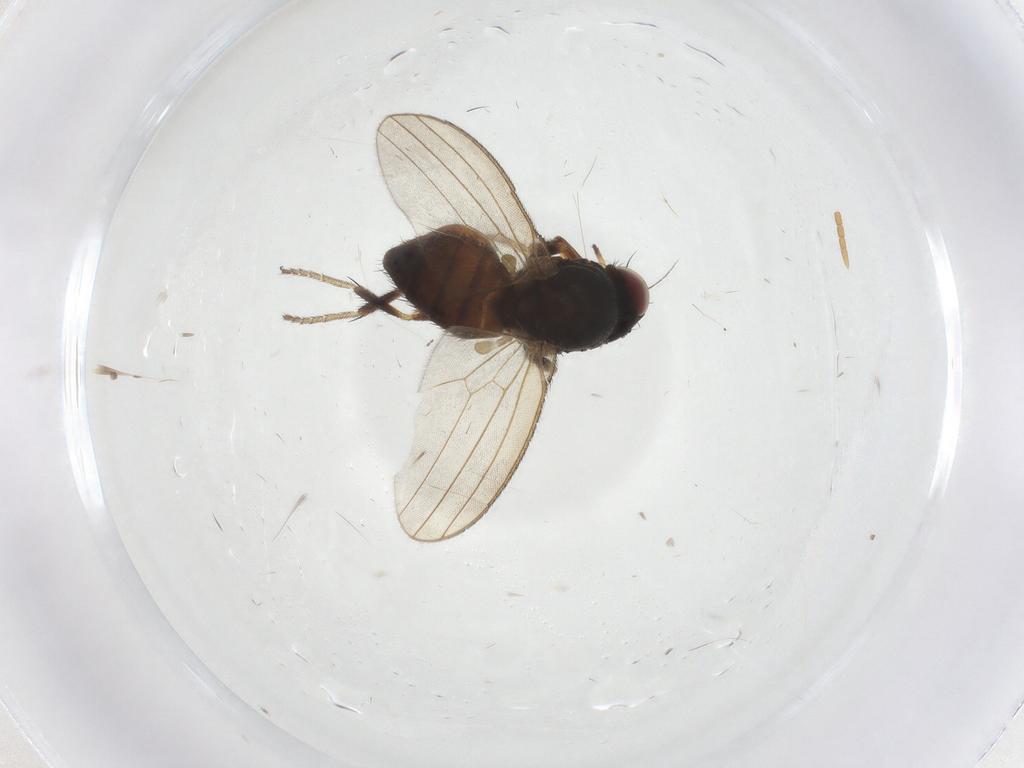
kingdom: Animalia
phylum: Arthropoda
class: Insecta
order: Diptera
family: Milichiidae
